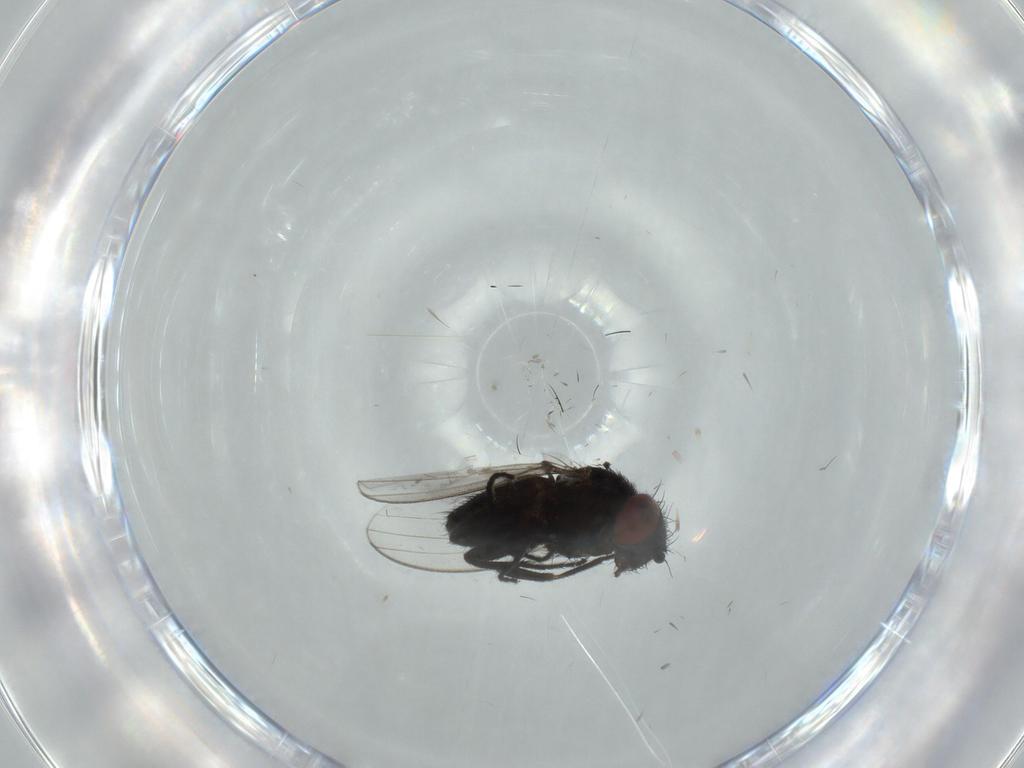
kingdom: Animalia
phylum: Arthropoda
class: Insecta
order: Diptera
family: Milichiidae
